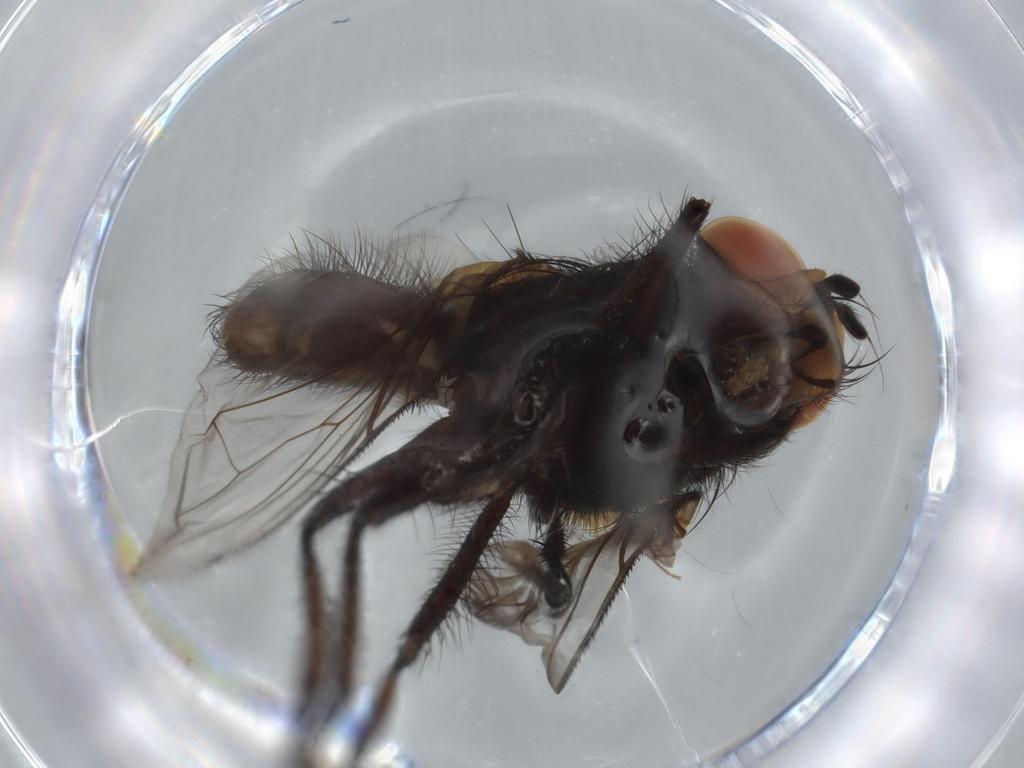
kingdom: Animalia
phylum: Arthropoda
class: Insecta
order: Diptera
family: Anthomyiidae
